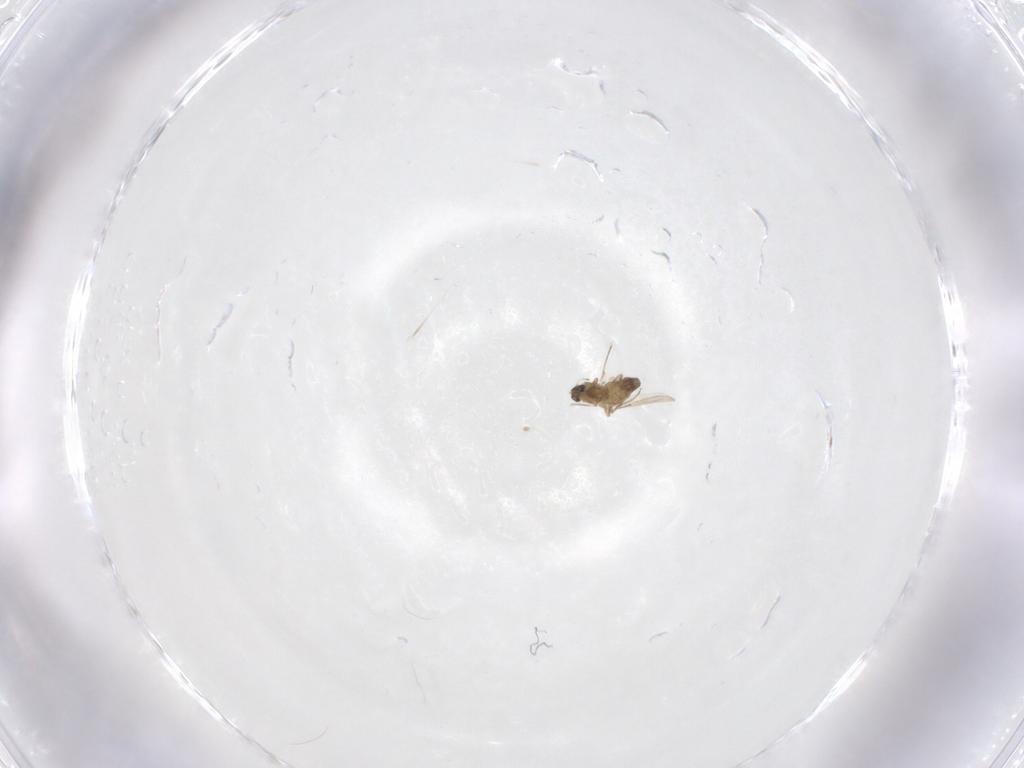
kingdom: Animalia
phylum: Arthropoda
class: Insecta
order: Diptera
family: Chironomidae
